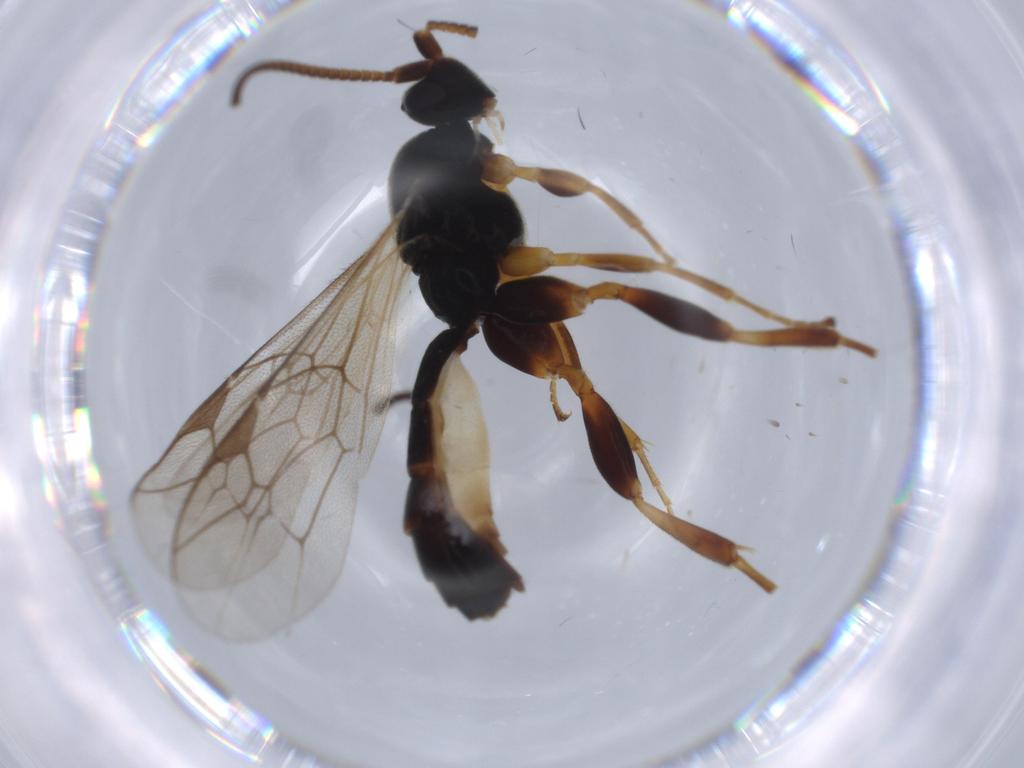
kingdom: Animalia
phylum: Arthropoda
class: Insecta
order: Hymenoptera
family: Ichneumonidae
